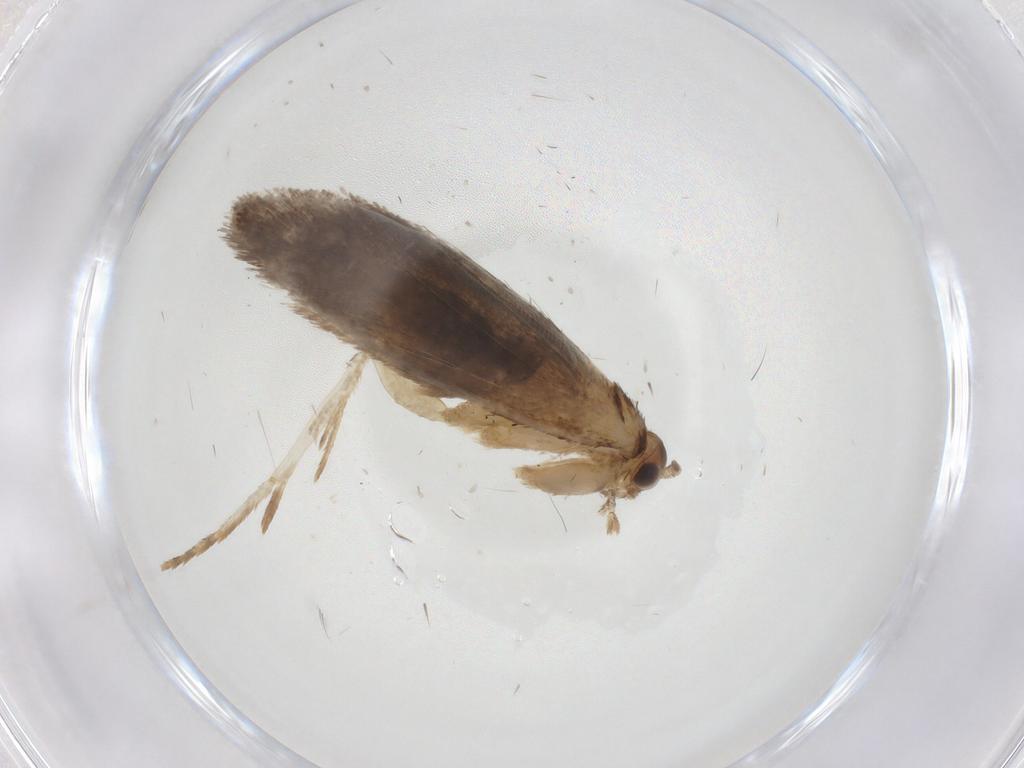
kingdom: Animalia
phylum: Arthropoda
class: Insecta
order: Lepidoptera
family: Dryadaulidae
